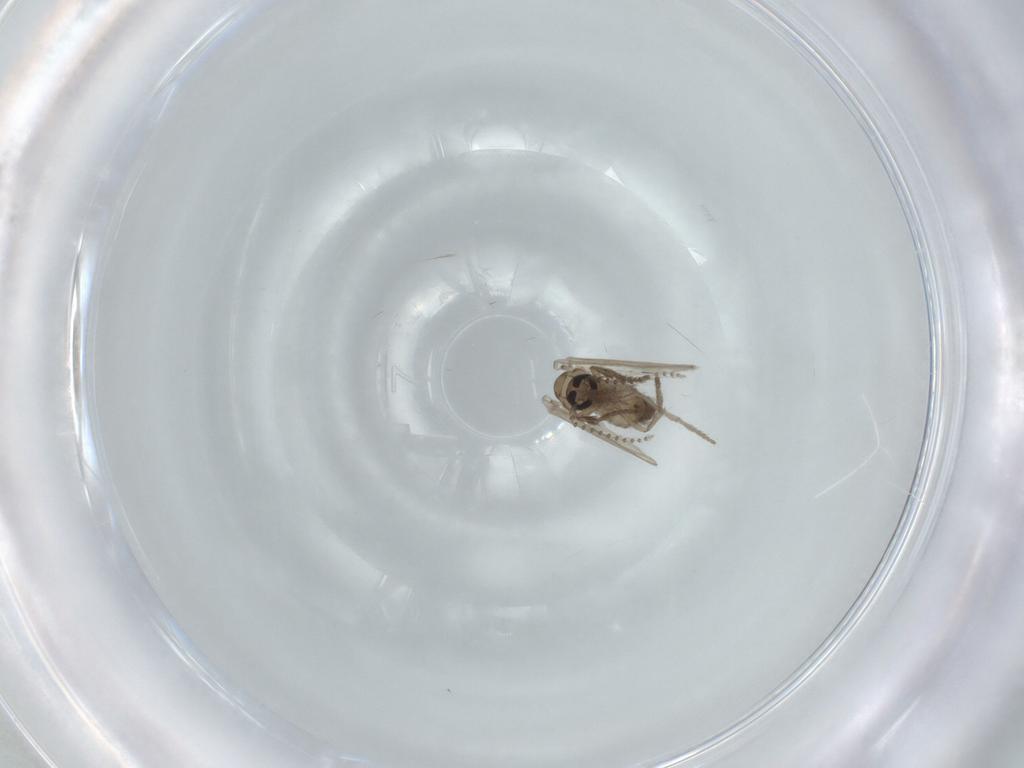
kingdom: Animalia
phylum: Arthropoda
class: Insecta
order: Diptera
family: Psychodidae
